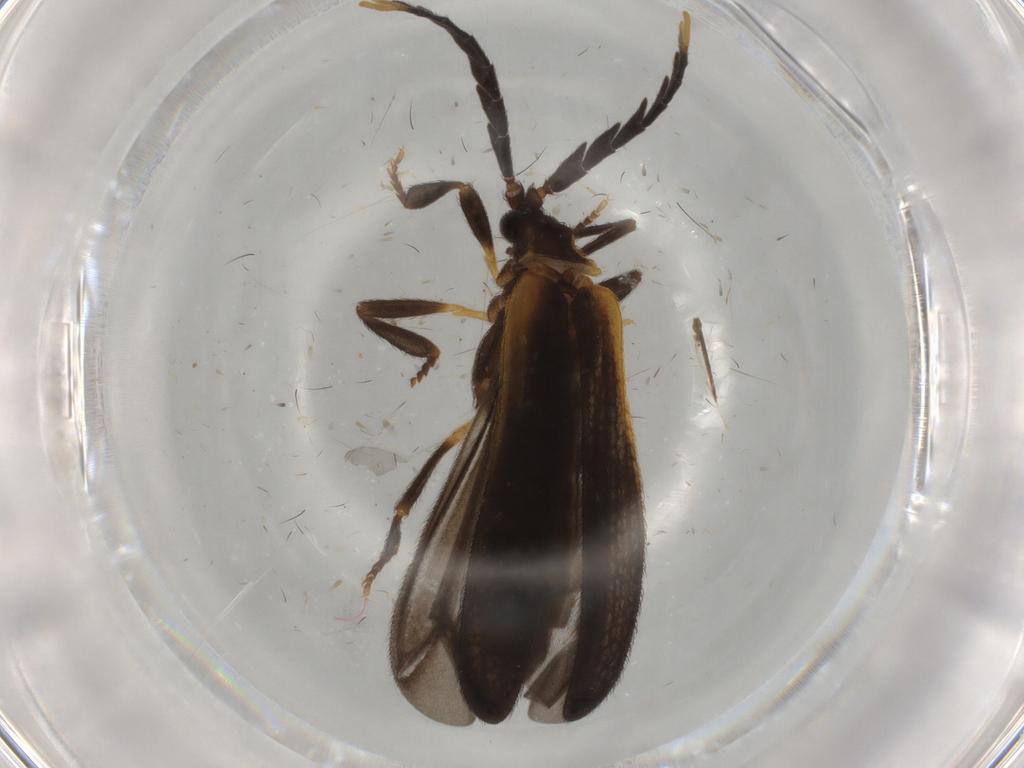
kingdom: Animalia
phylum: Arthropoda
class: Insecta
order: Coleoptera
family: Lycidae
